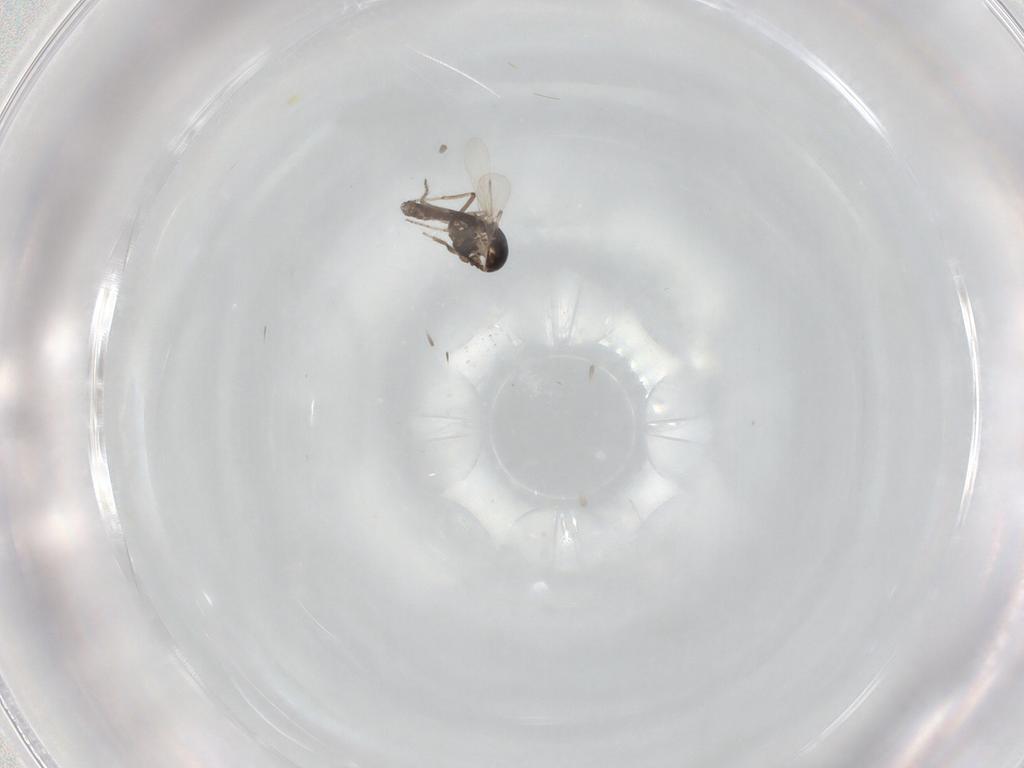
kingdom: Animalia
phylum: Arthropoda
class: Insecta
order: Diptera
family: Ceratopogonidae
